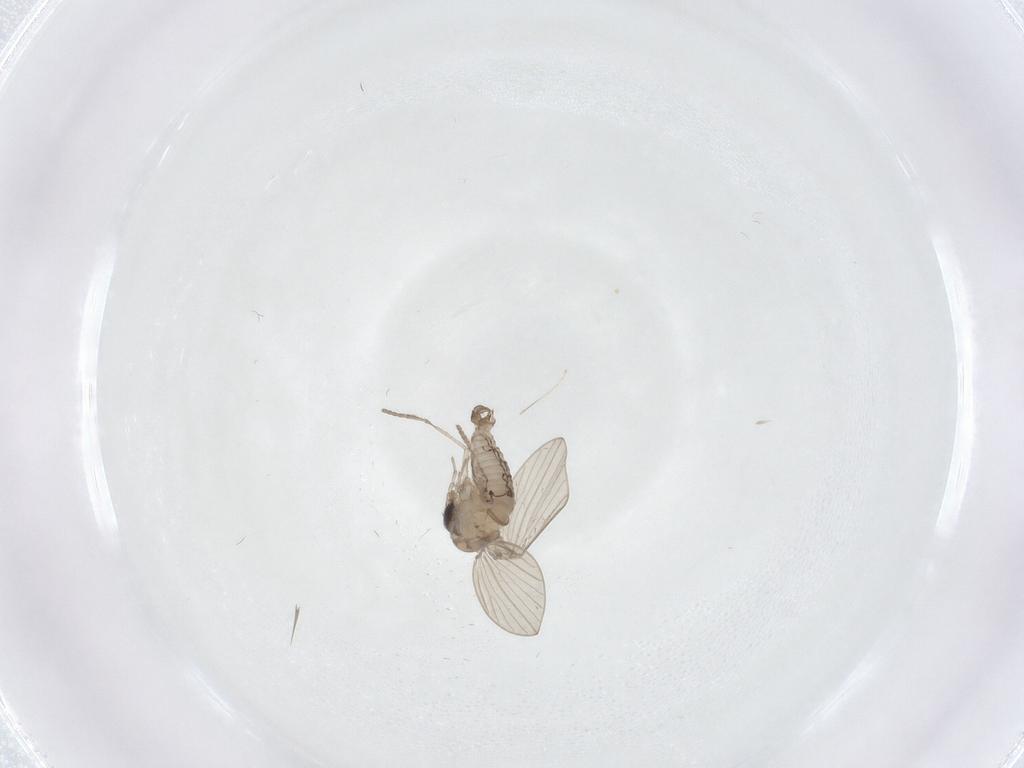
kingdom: Animalia
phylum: Arthropoda
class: Insecta
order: Diptera
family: Psychodidae
